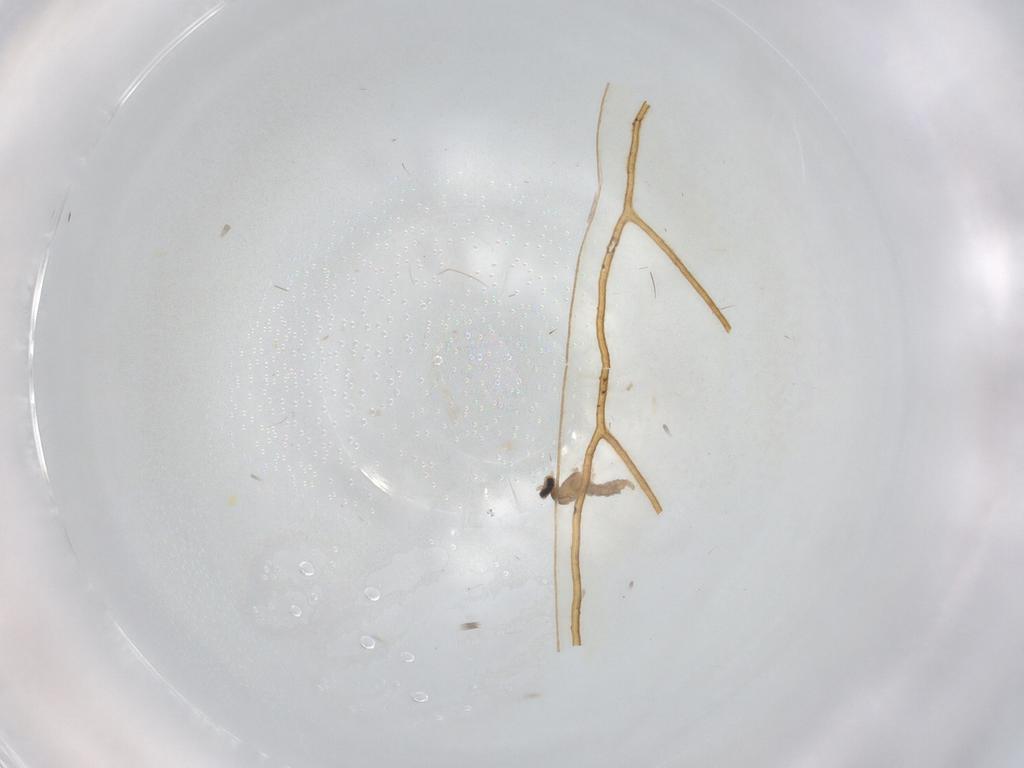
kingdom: Animalia
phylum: Arthropoda
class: Insecta
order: Diptera
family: Cecidomyiidae
